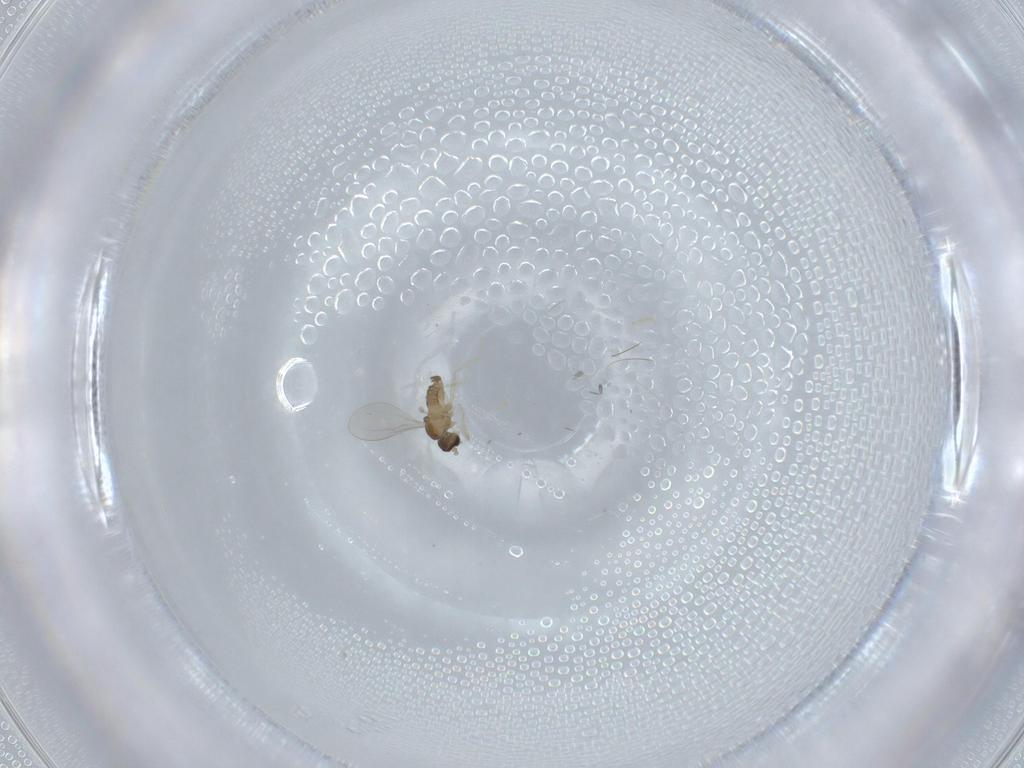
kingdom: Animalia
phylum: Arthropoda
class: Insecta
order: Diptera
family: Cecidomyiidae
